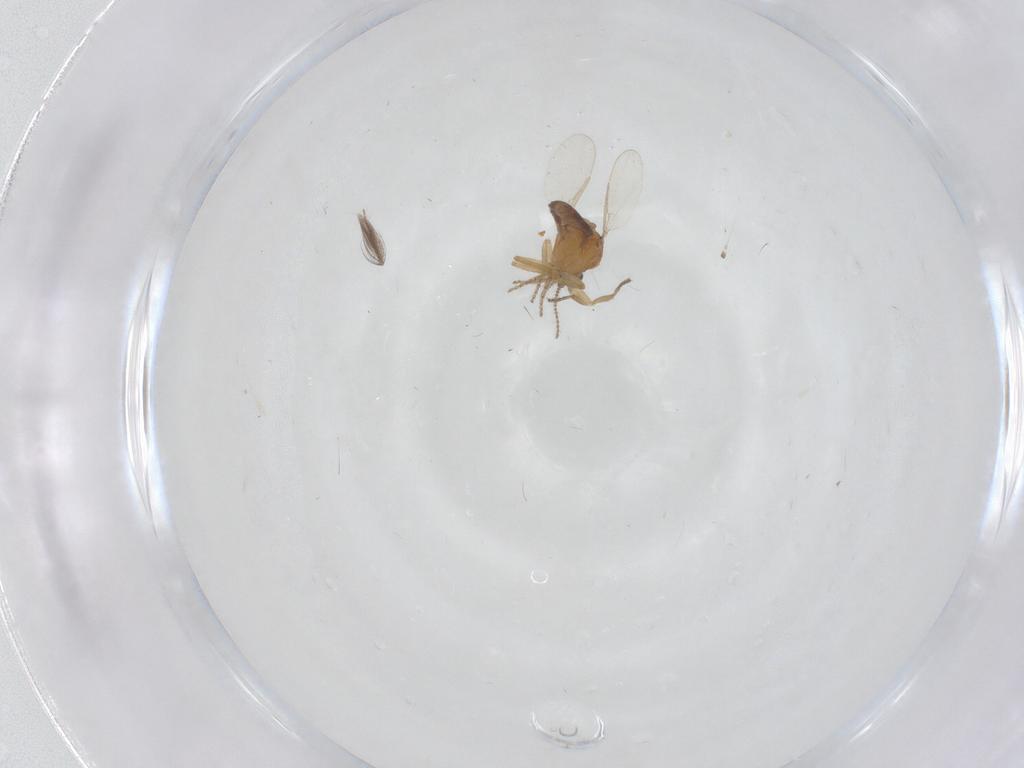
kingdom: Animalia
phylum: Arthropoda
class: Insecta
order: Diptera
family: Ceratopogonidae
